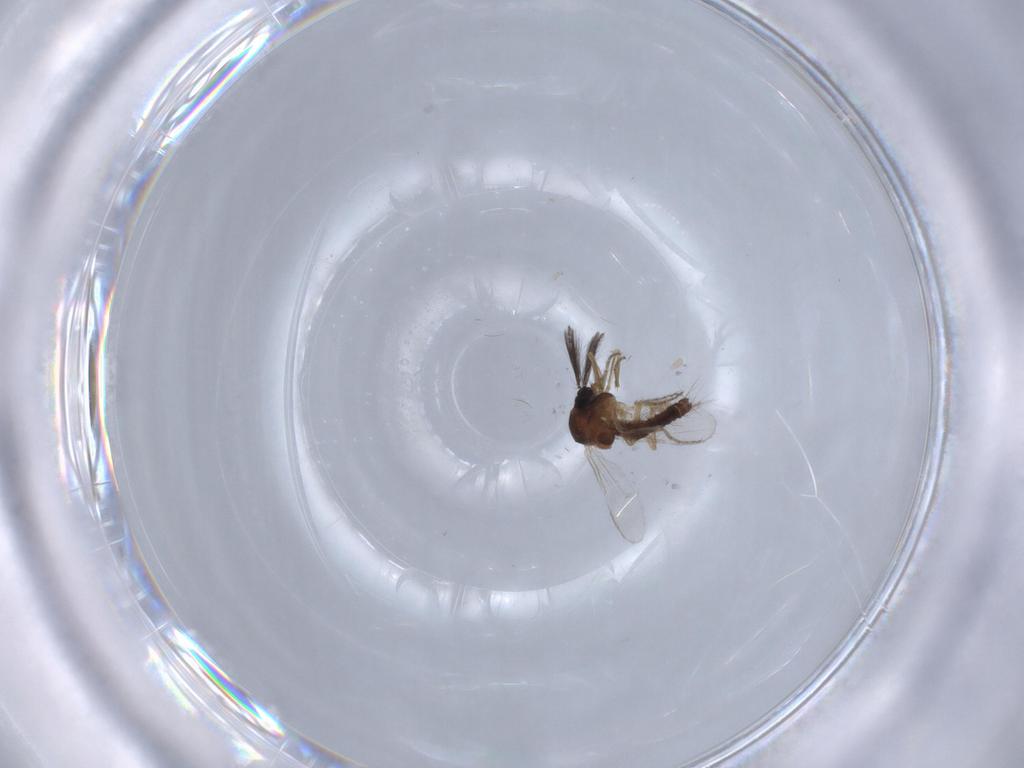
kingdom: Animalia
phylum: Arthropoda
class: Insecta
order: Diptera
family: Ceratopogonidae
